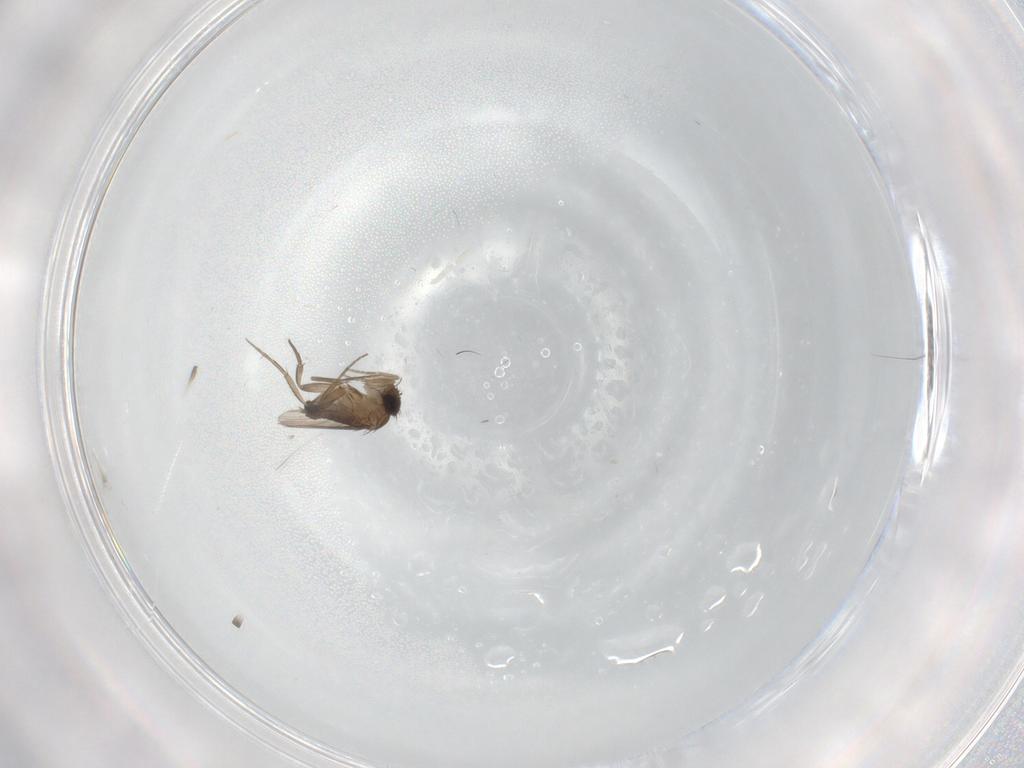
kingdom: Animalia
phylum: Arthropoda
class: Insecta
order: Diptera
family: Phoridae
